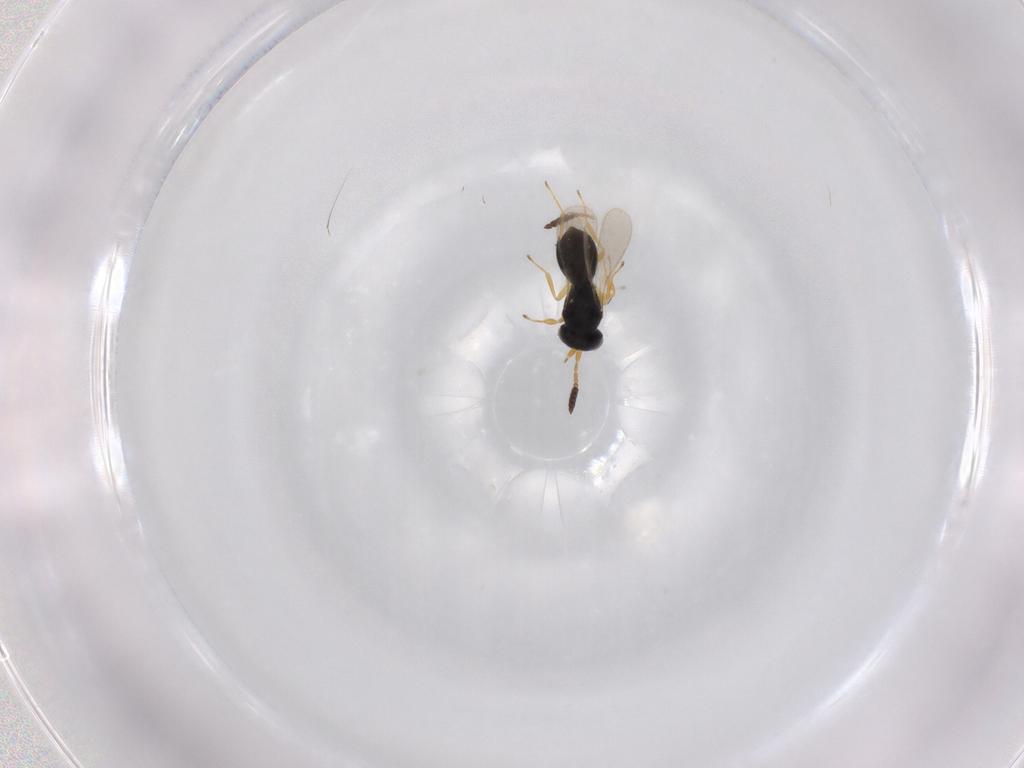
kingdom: Animalia
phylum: Arthropoda
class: Insecta
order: Hymenoptera
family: Scelionidae
